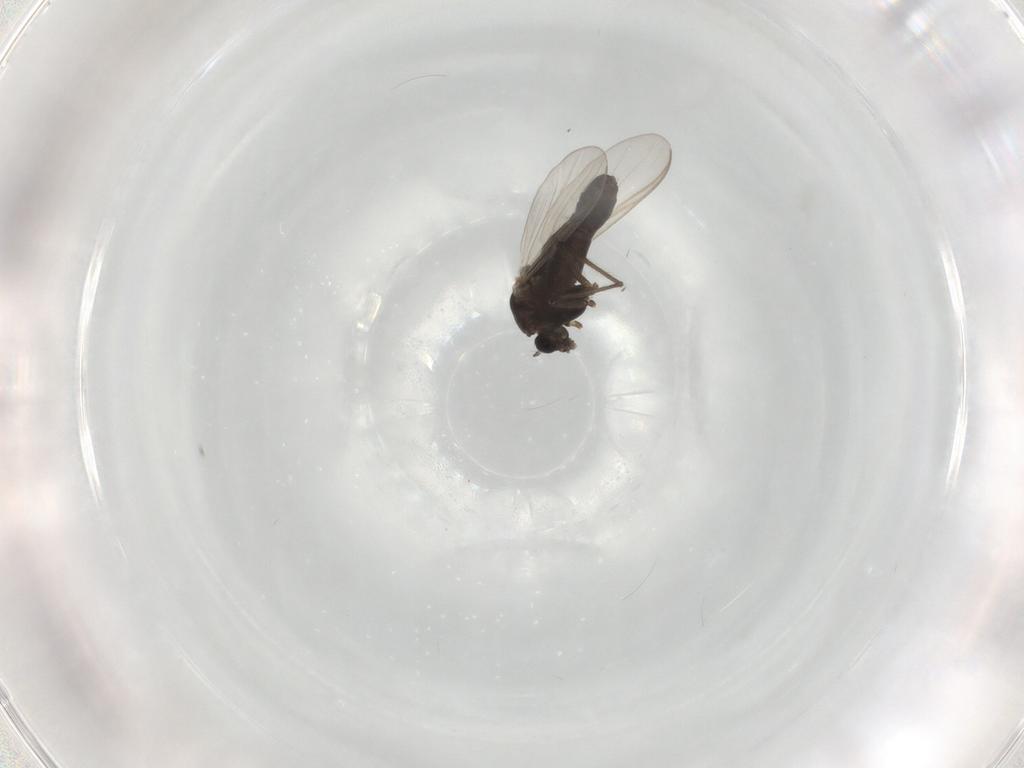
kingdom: Animalia
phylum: Arthropoda
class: Insecta
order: Diptera
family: Chironomidae
